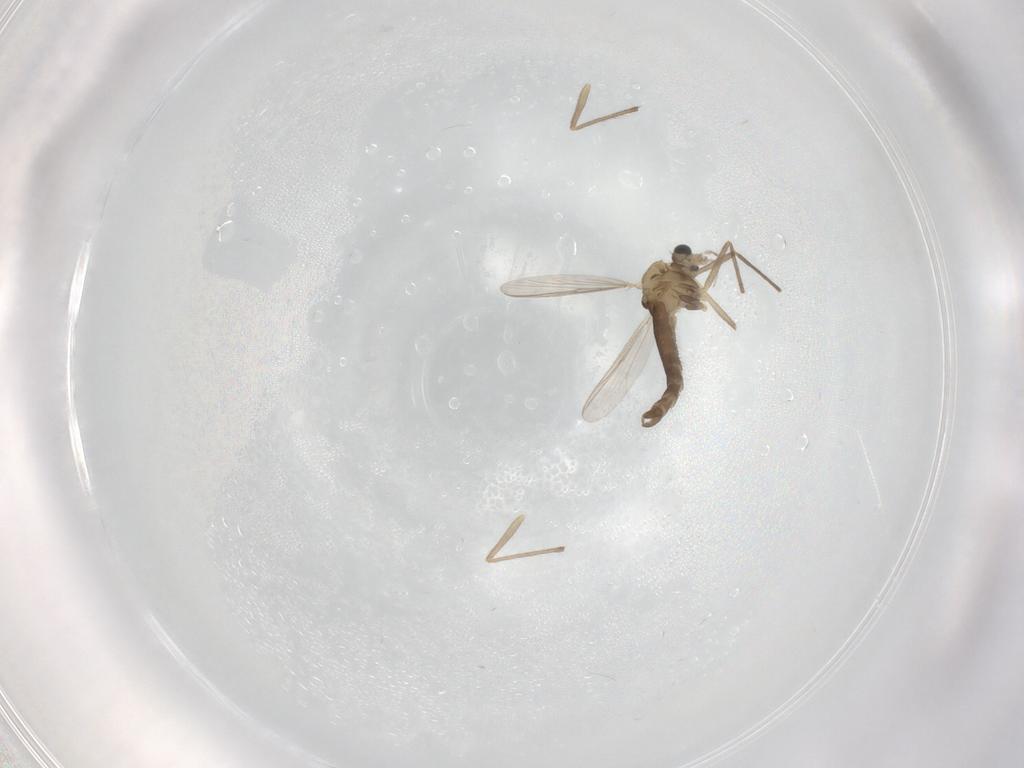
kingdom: Animalia
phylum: Arthropoda
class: Insecta
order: Diptera
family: Chironomidae
